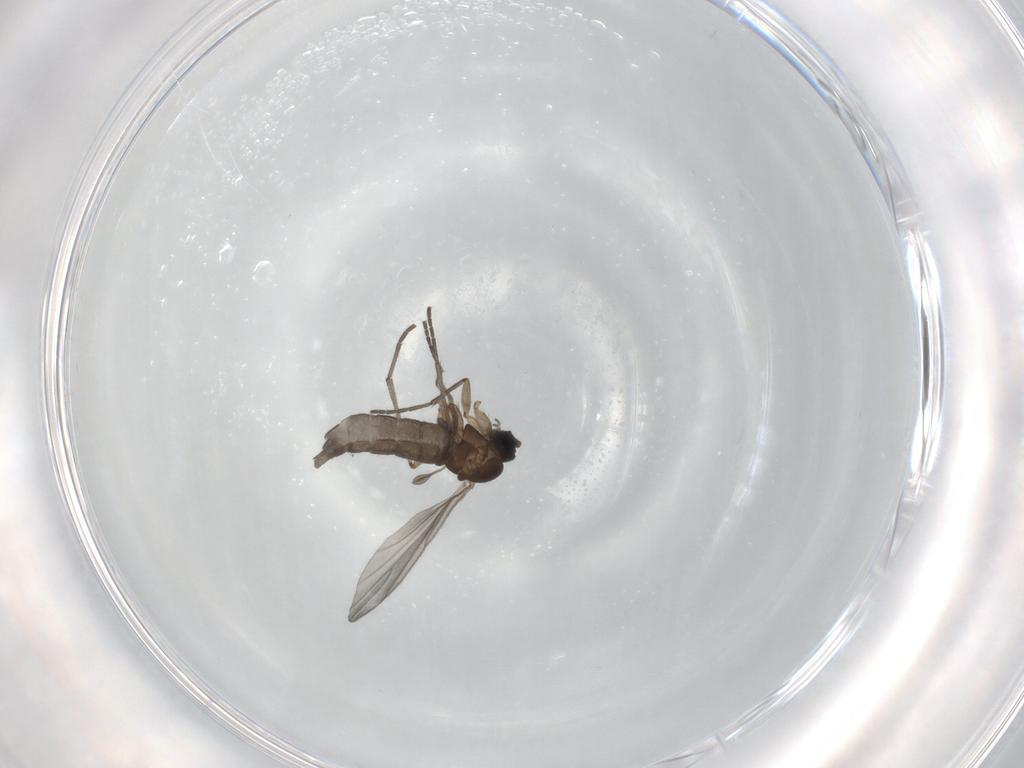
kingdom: Animalia
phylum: Arthropoda
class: Insecta
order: Diptera
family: Sciaridae
